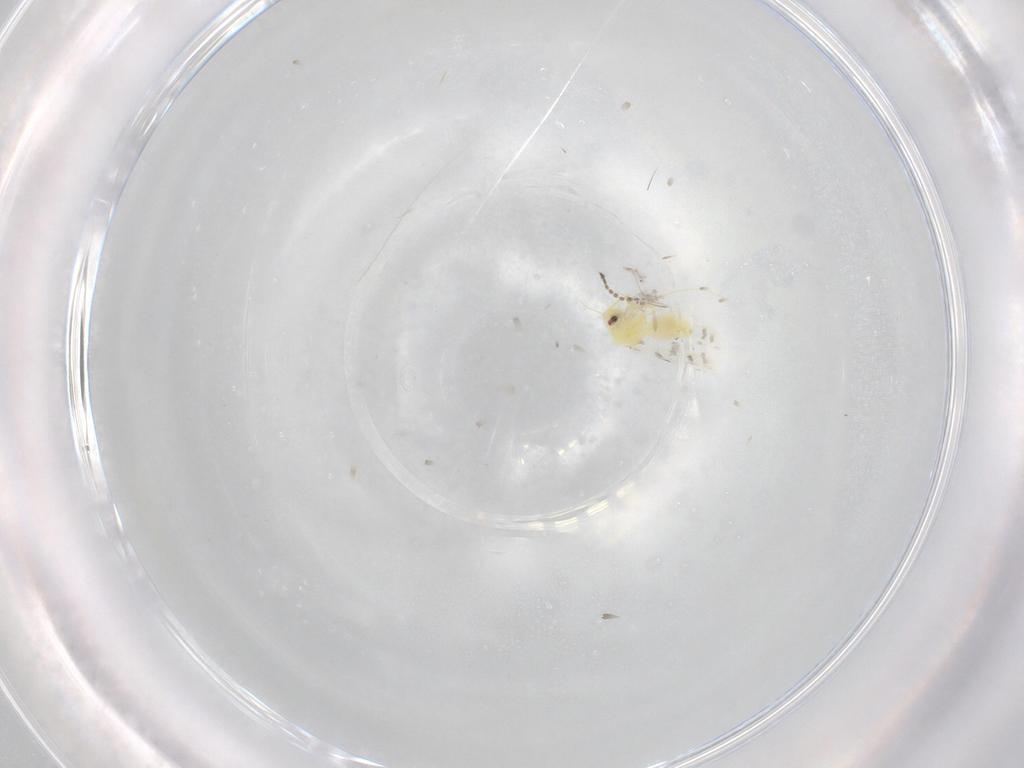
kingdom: Animalia
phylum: Arthropoda
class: Insecta
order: Hemiptera
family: Aleyrodidae
